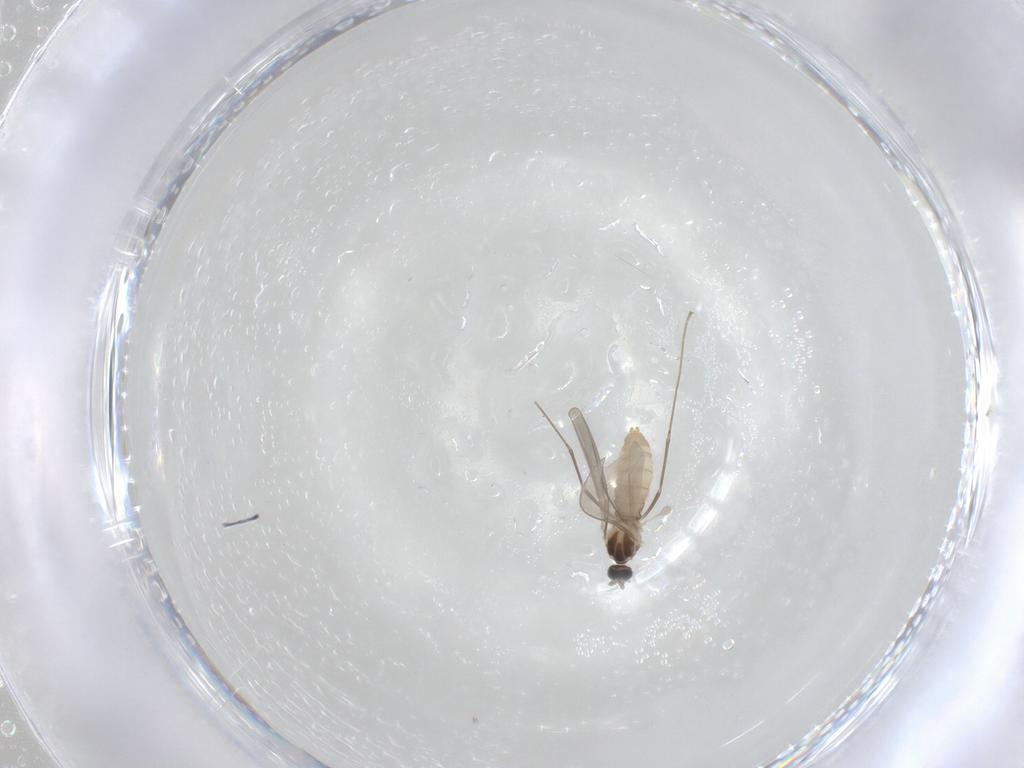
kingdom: Animalia
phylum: Arthropoda
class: Insecta
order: Diptera
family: Cecidomyiidae
